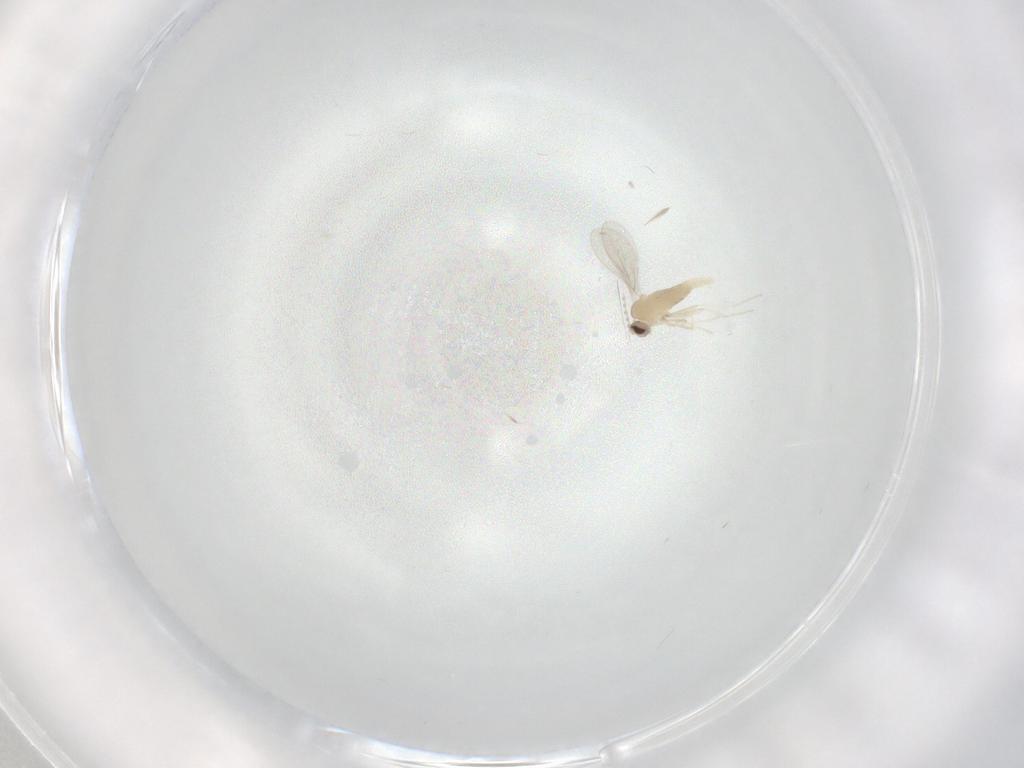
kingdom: Animalia
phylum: Arthropoda
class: Insecta
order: Diptera
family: Cecidomyiidae
